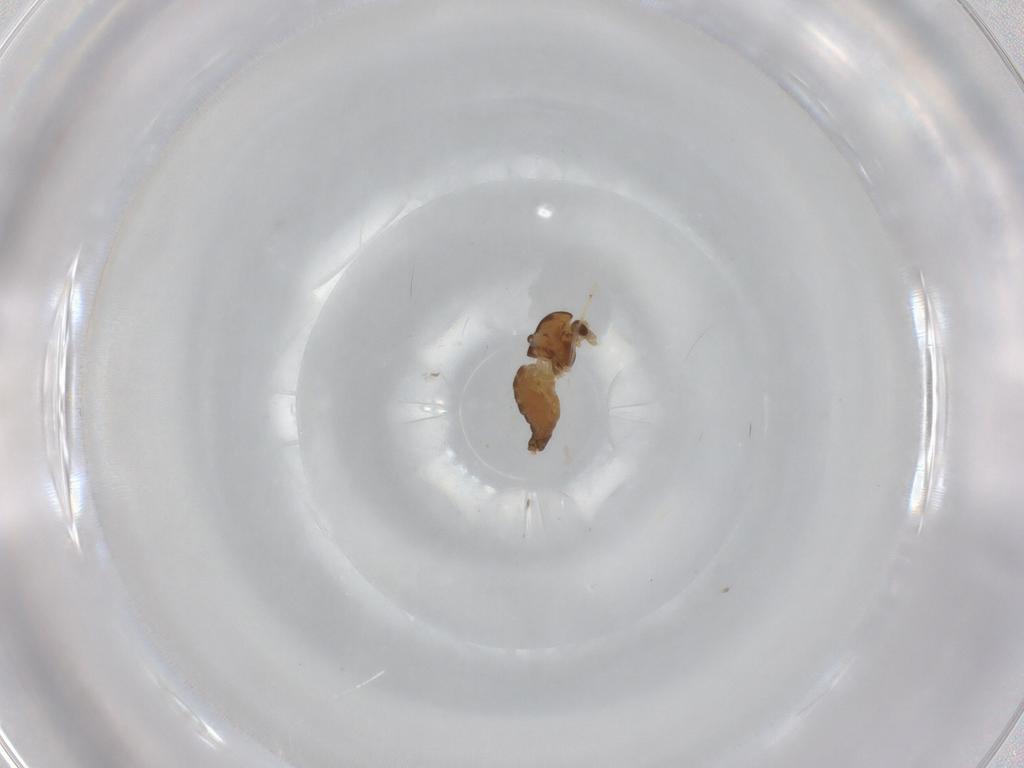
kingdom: Animalia
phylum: Arthropoda
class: Insecta
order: Diptera
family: Chironomidae
